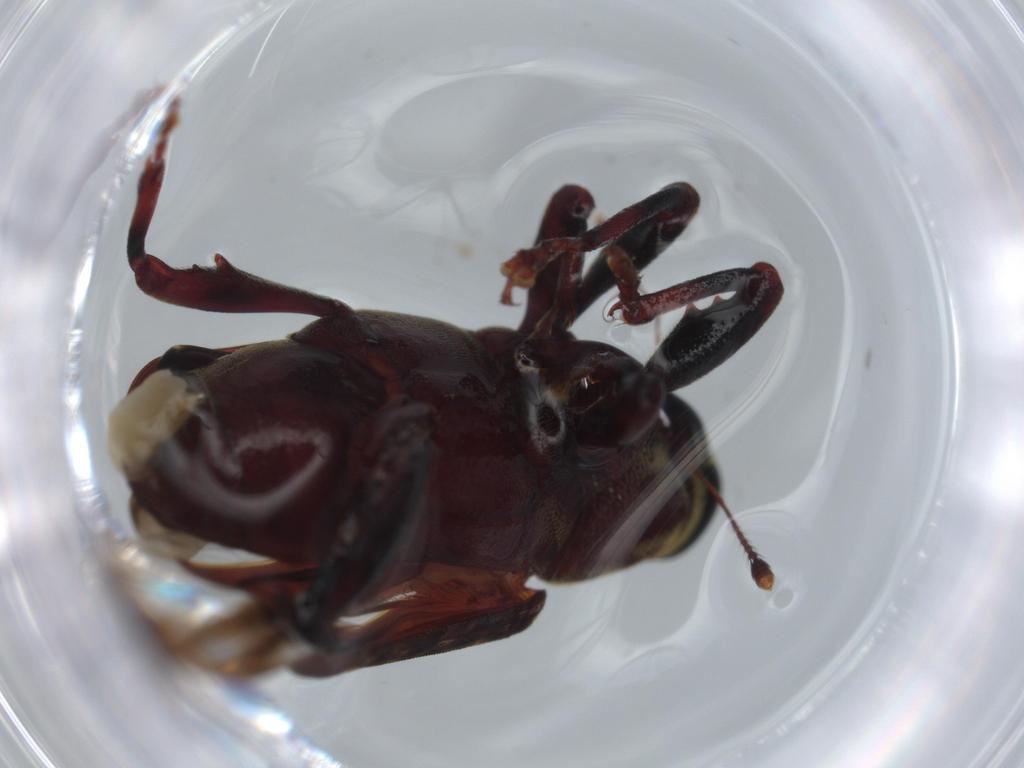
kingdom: Animalia
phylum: Arthropoda
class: Insecta
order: Coleoptera
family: Curculionidae
